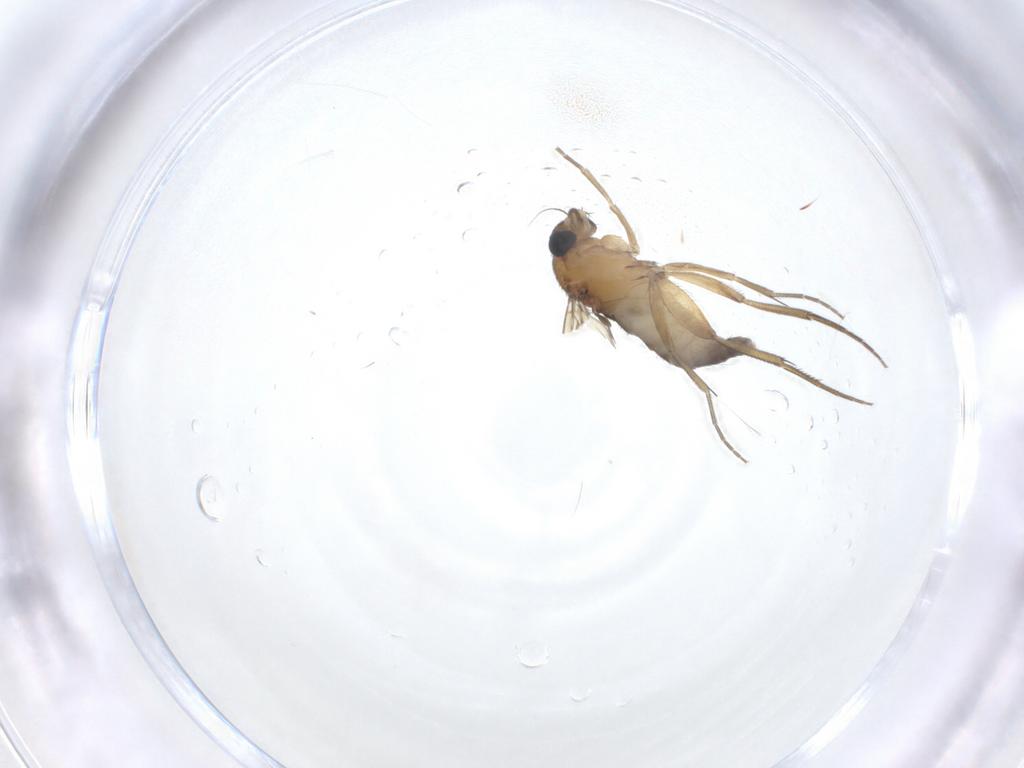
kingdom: Animalia
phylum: Arthropoda
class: Insecta
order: Diptera
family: Phoridae
